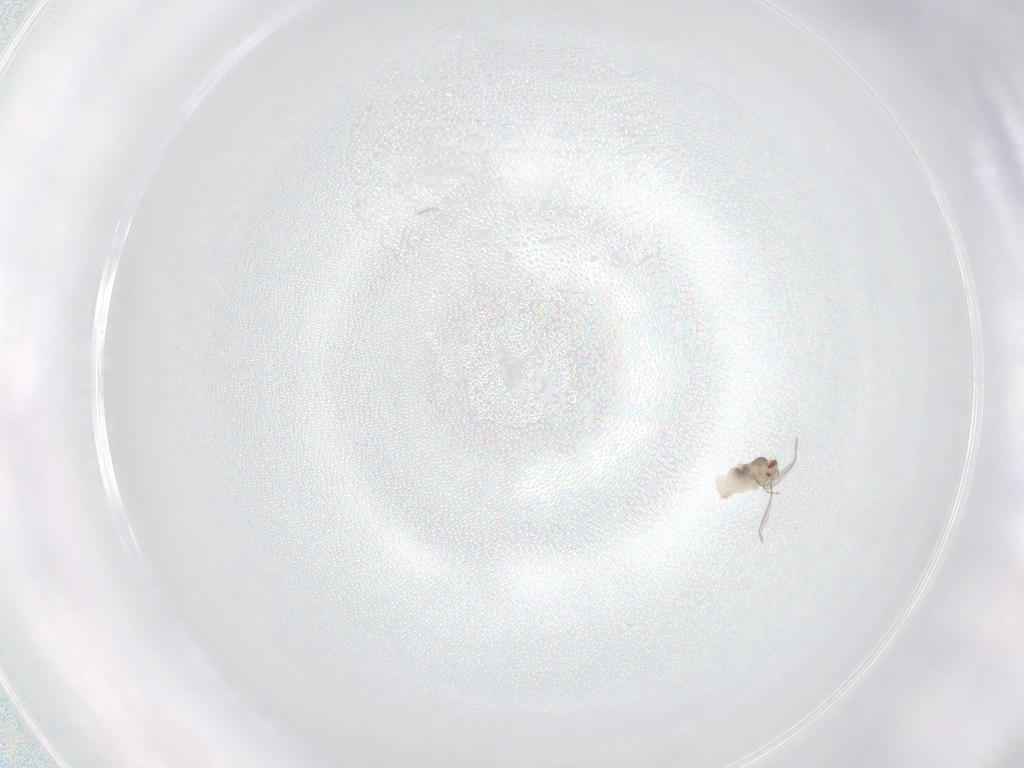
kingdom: Animalia
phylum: Arthropoda
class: Insecta
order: Diptera
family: Cecidomyiidae
